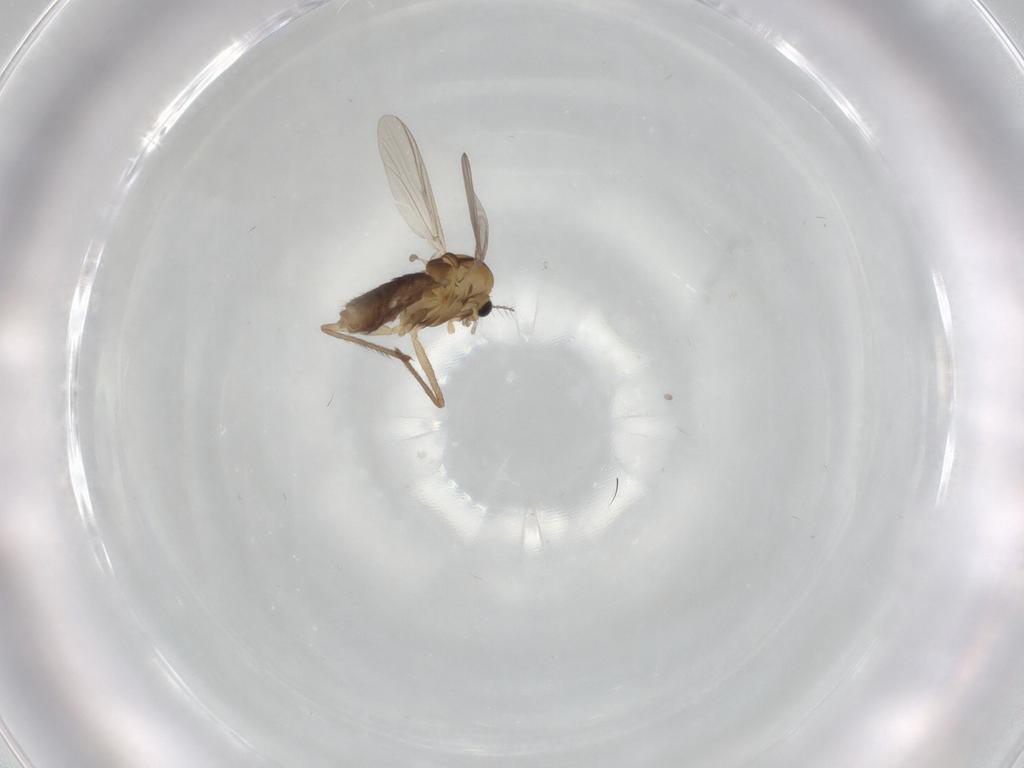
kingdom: Animalia
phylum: Arthropoda
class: Insecta
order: Diptera
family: Chironomidae
